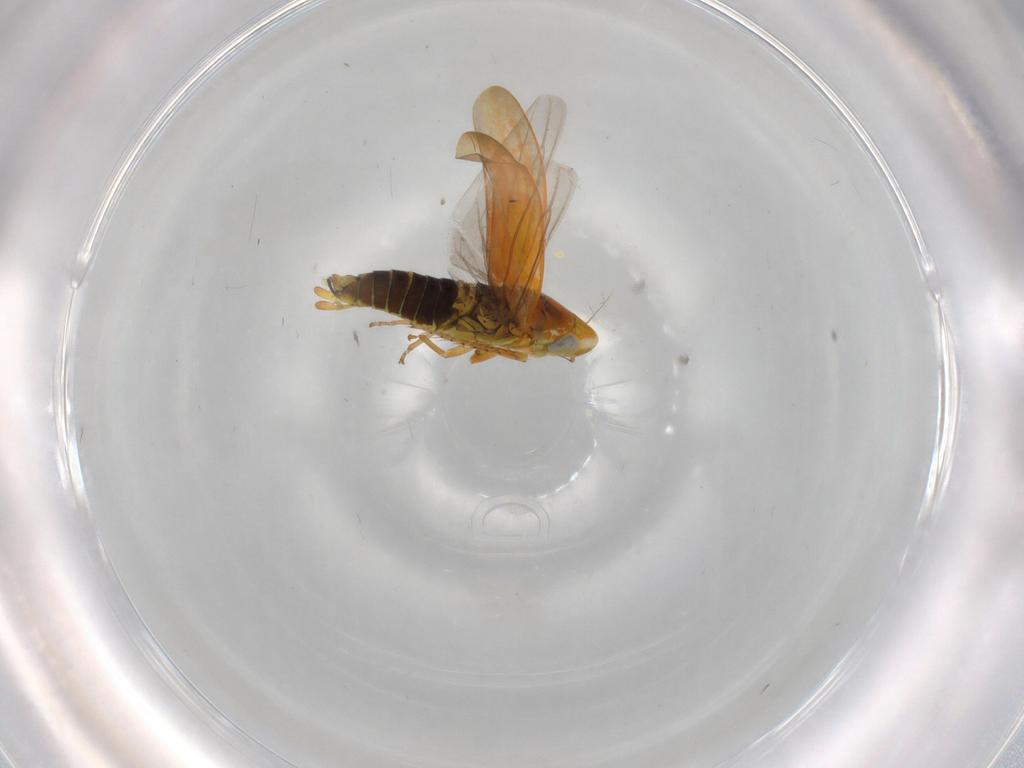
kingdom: Animalia
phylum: Arthropoda
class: Insecta
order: Hemiptera
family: Cicadellidae
